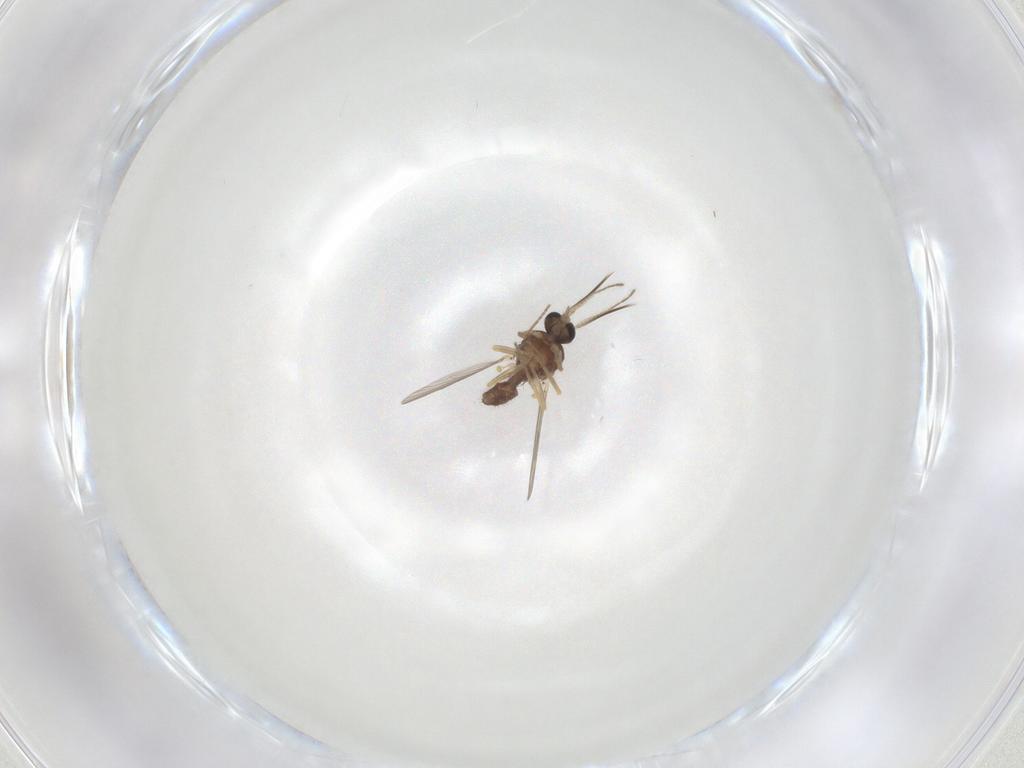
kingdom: Animalia
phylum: Arthropoda
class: Insecta
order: Diptera
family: Ceratopogonidae
